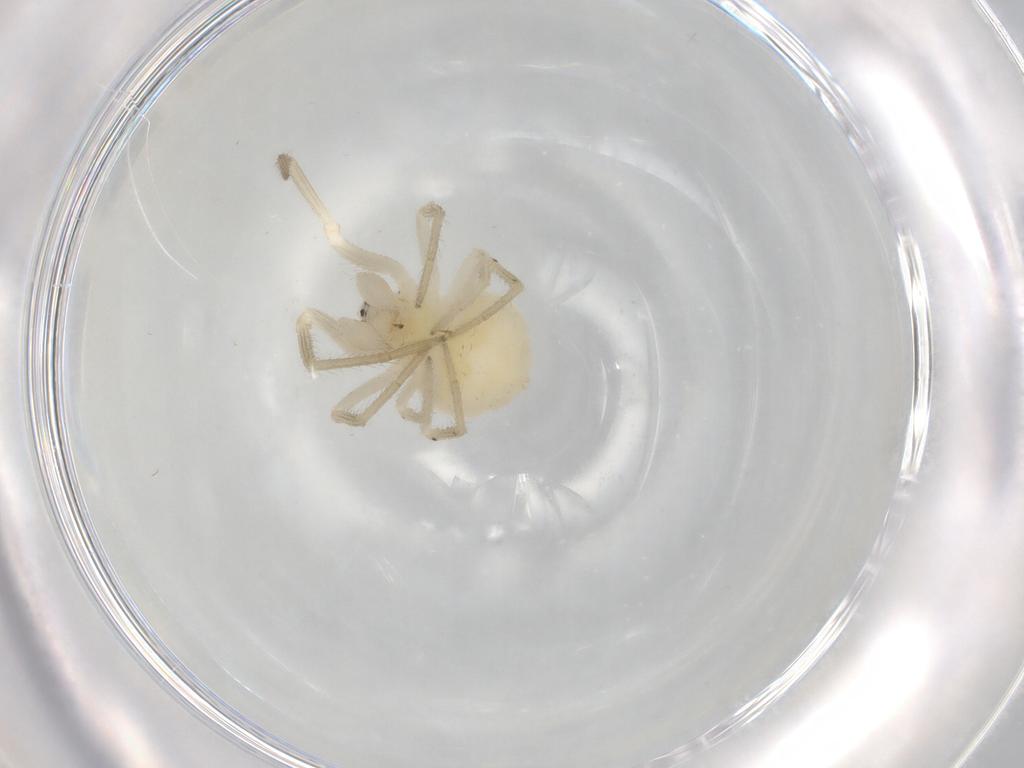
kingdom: Animalia
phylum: Arthropoda
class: Arachnida
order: Araneae
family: Theridiidae
